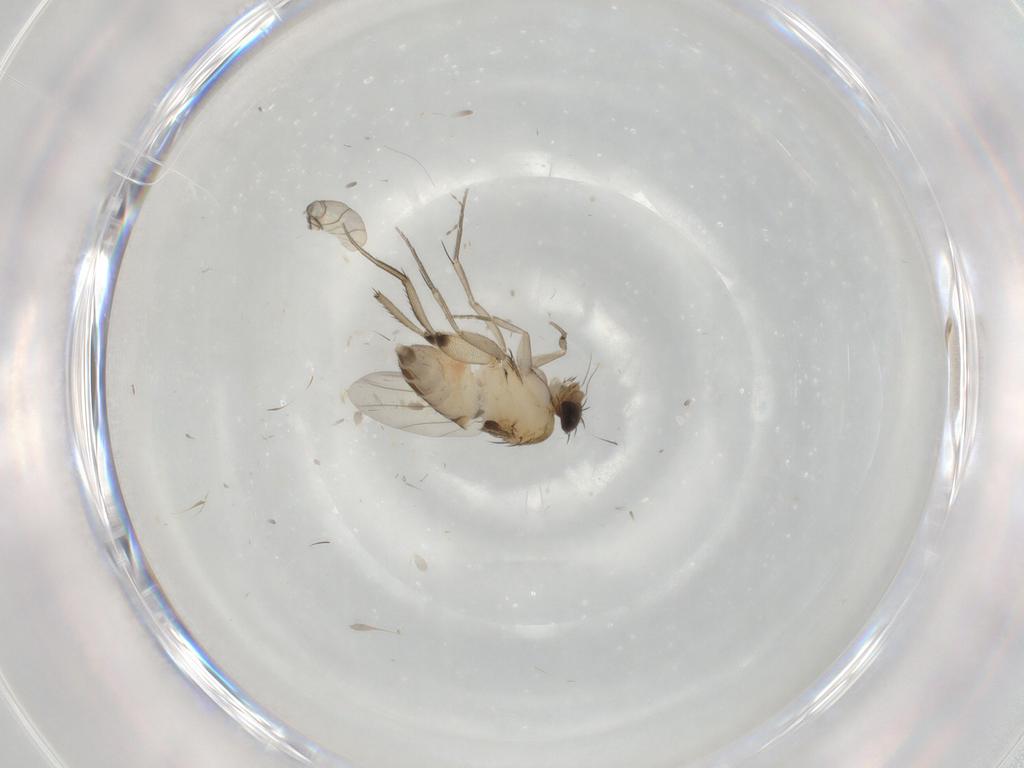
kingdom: Animalia
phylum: Arthropoda
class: Insecta
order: Diptera
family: Phoridae
